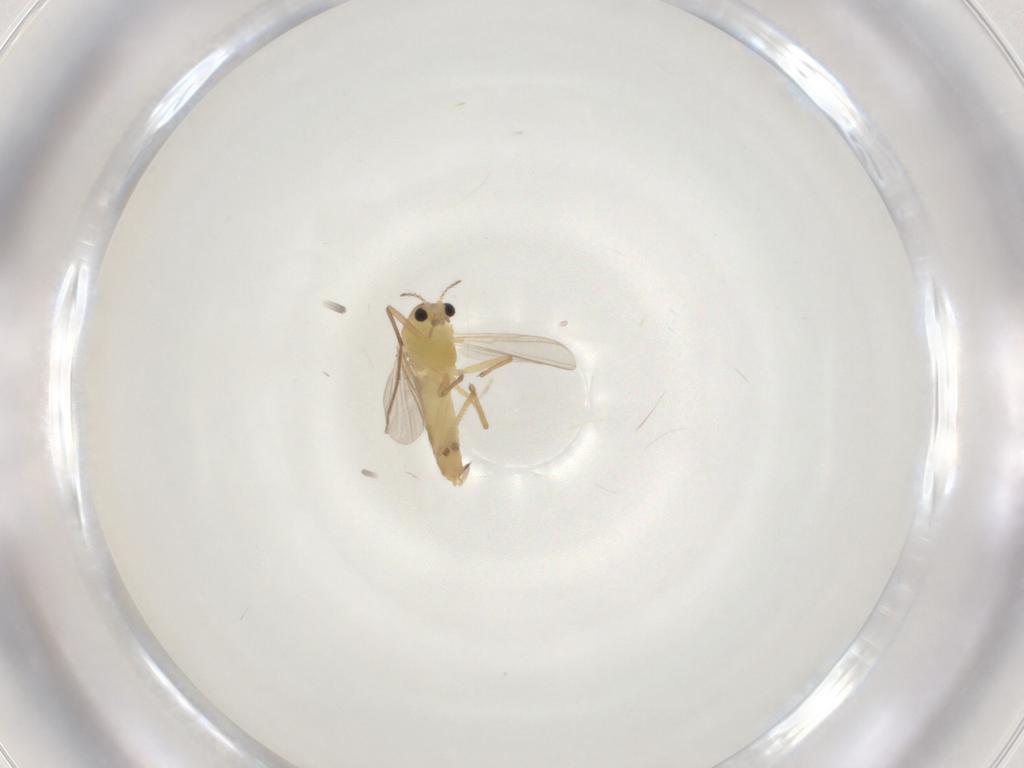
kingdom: Animalia
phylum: Arthropoda
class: Insecta
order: Diptera
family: Chironomidae
